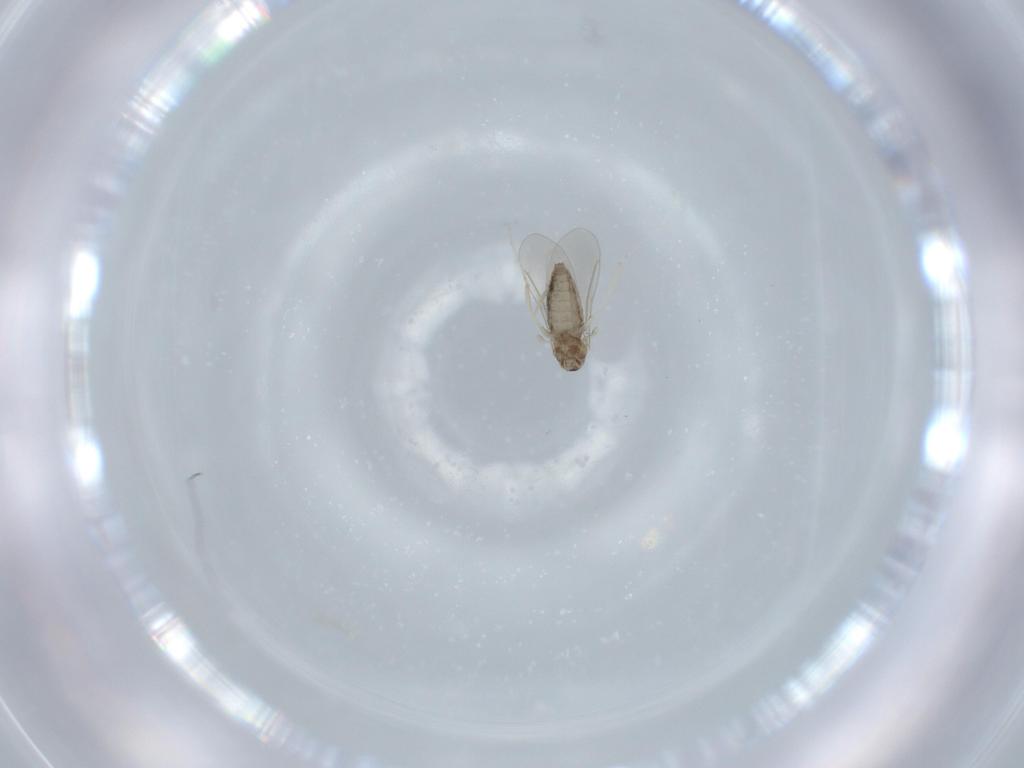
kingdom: Animalia
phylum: Arthropoda
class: Insecta
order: Diptera
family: Cecidomyiidae
